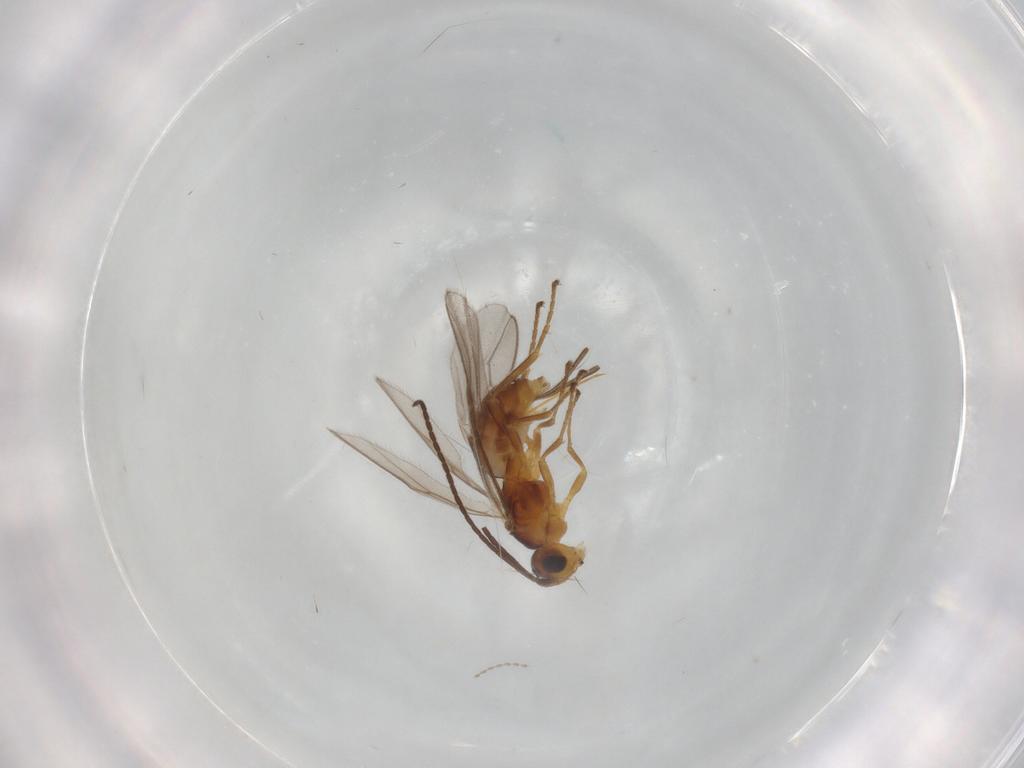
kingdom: Animalia
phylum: Arthropoda
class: Insecta
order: Hymenoptera
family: Braconidae
